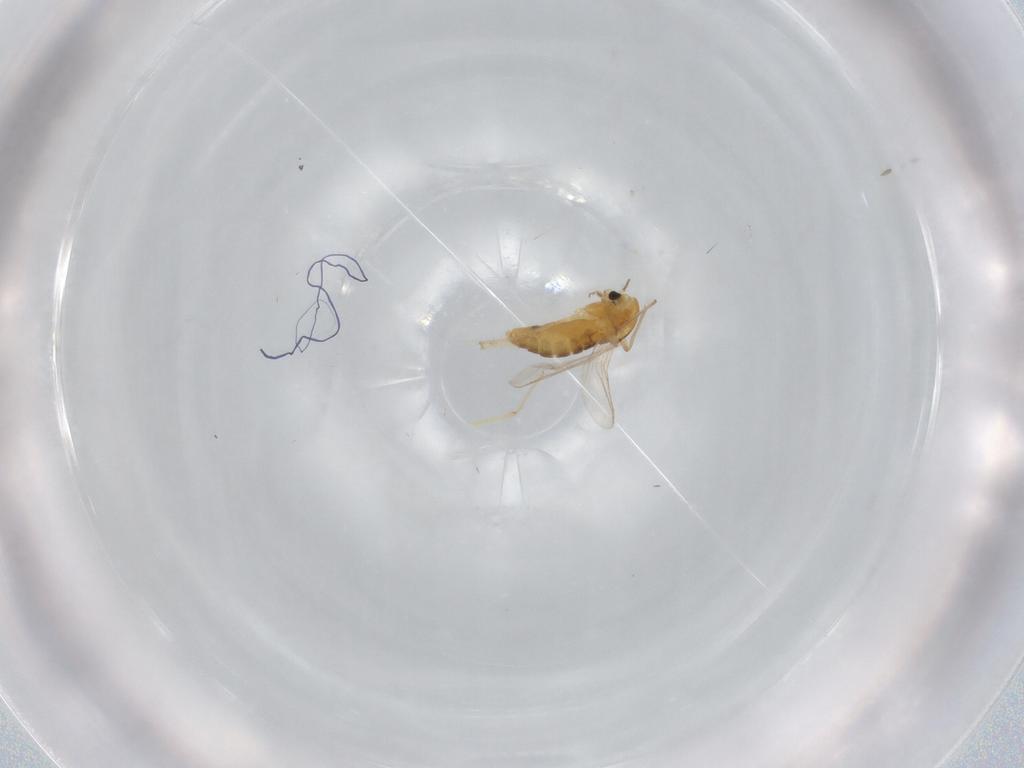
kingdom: Animalia
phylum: Arthropoda
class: Insecta
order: Diptera
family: Chironomidae
